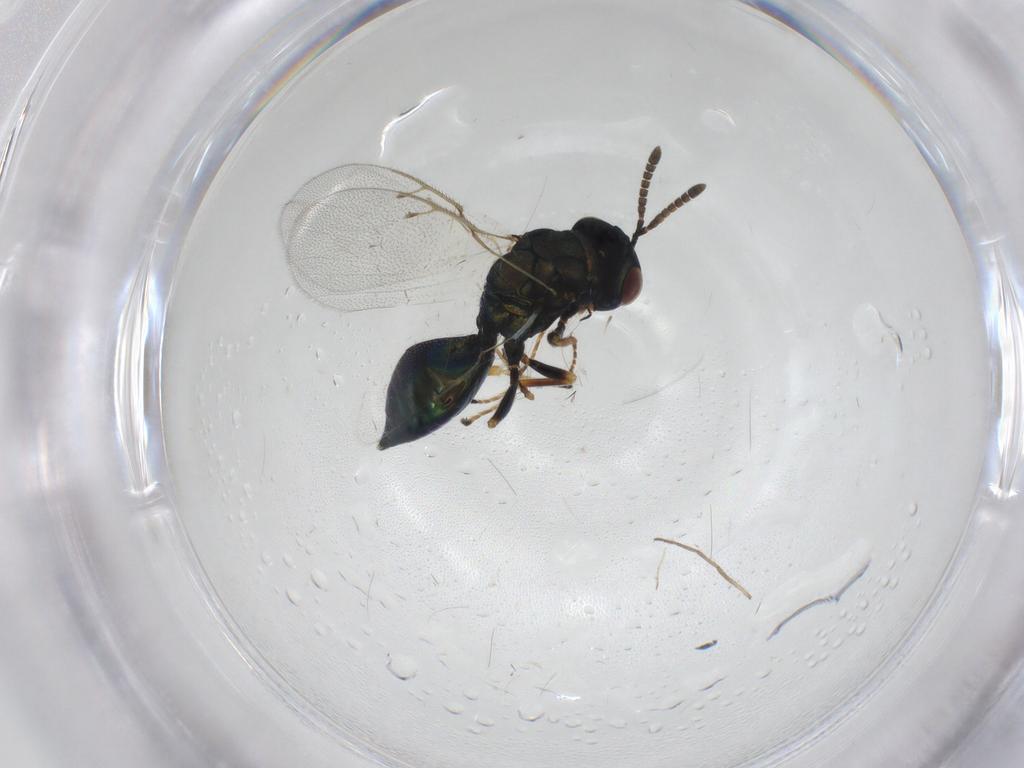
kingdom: Animalia
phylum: Arthropoda
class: Insecta
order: Hymenoptera
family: Pteromalidae
